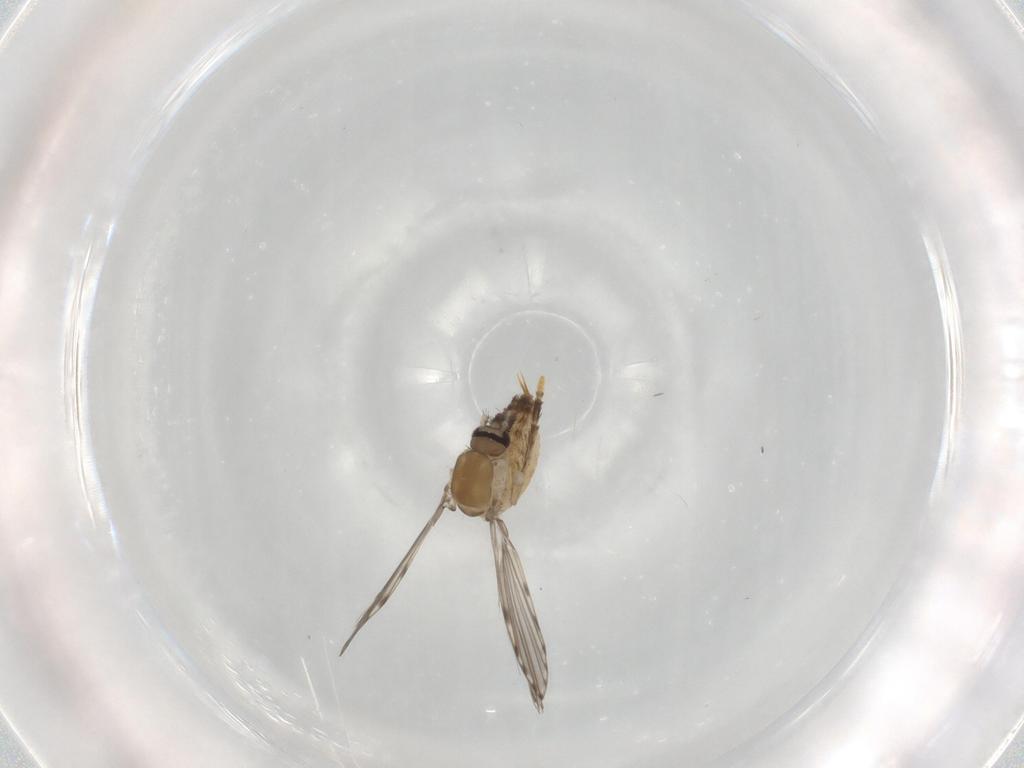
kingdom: Animalia
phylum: Arthropoda
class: Insecta
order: Diptera
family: Psychodidae
